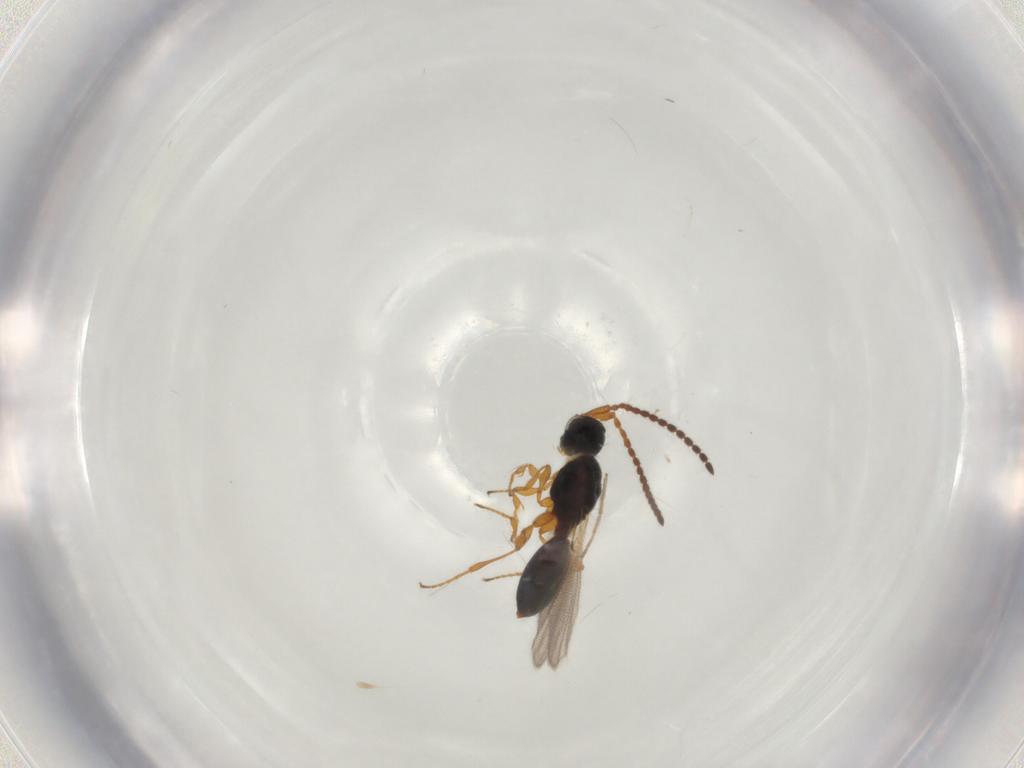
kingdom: Animalia
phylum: Arthropoda
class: Insecta
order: Hymenoptera
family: Diapriidae
